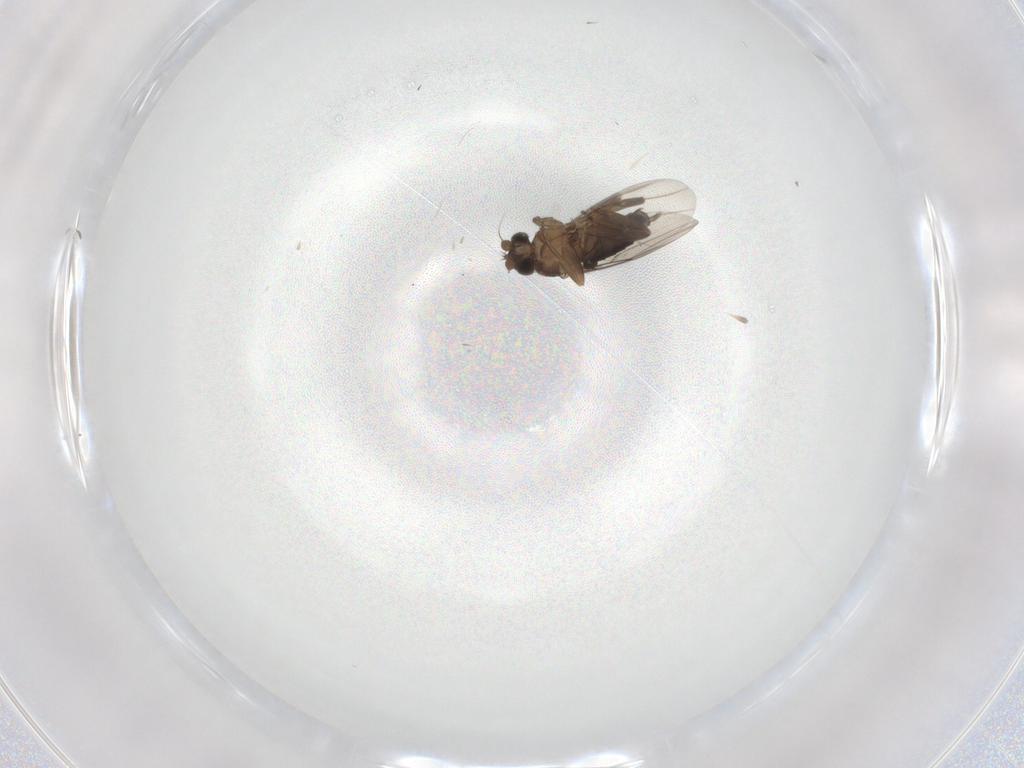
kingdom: Animalia
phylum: Arthropoda
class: Insecta
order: Diptera
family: Phoridae
